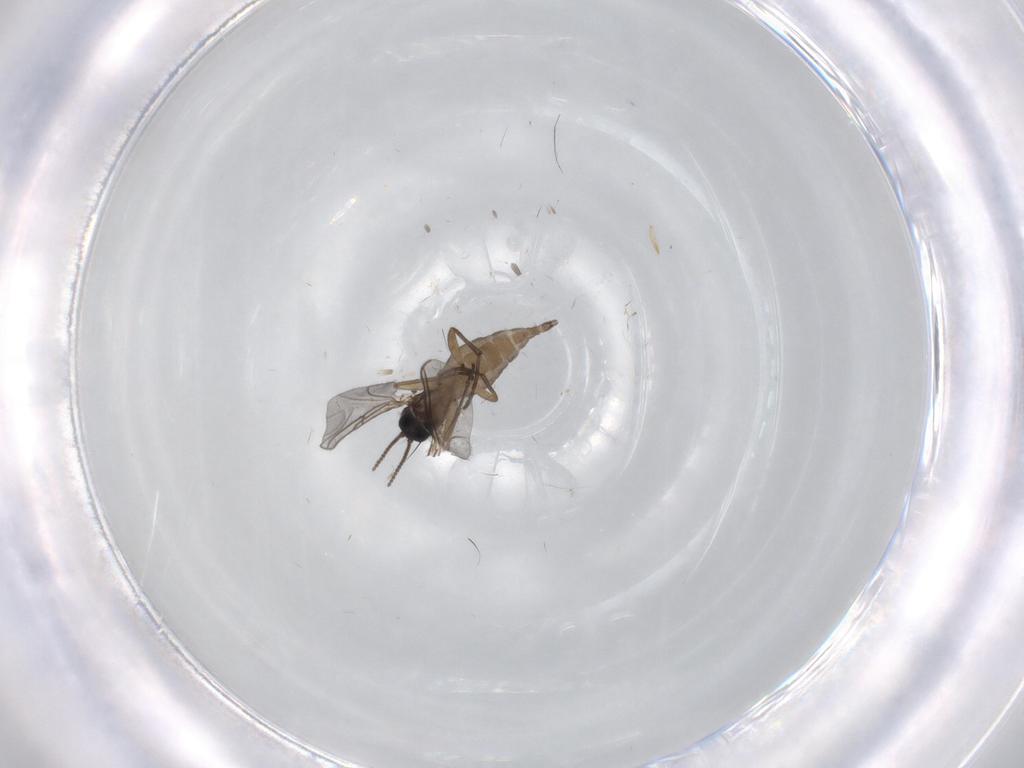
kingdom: Animalia
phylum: Arthropoda
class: Insecta
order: Diptera
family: Sciaridae
